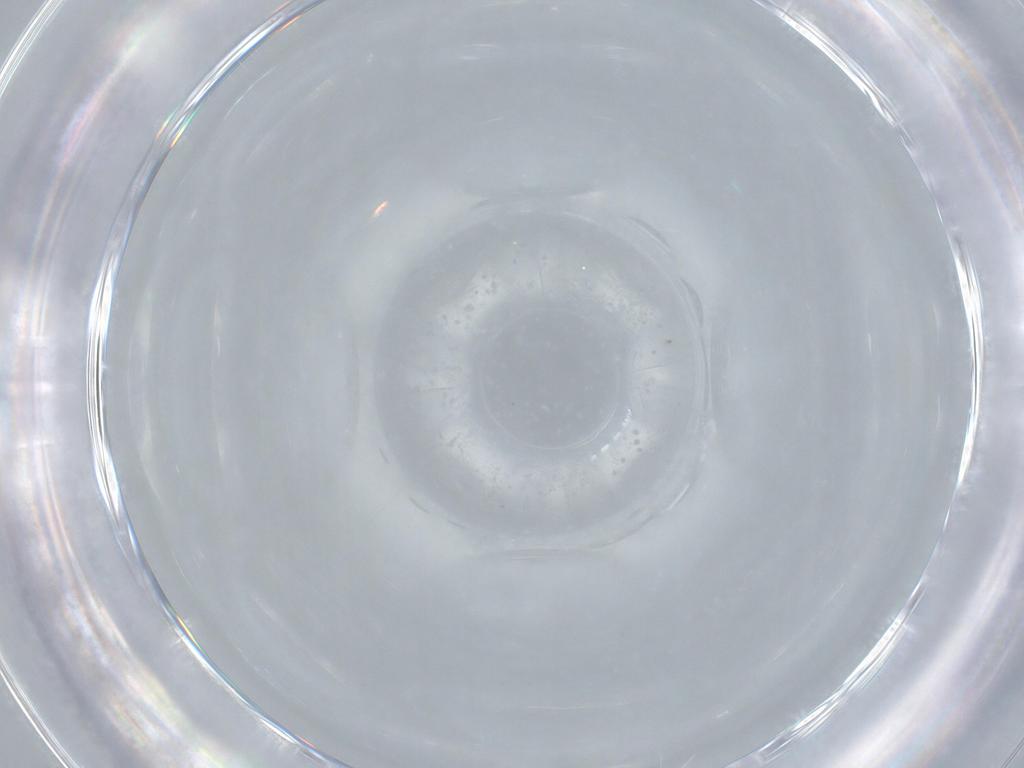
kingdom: Animalia
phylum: Arthropoda
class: Insecta
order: Diptera
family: Cecidomyiidae
